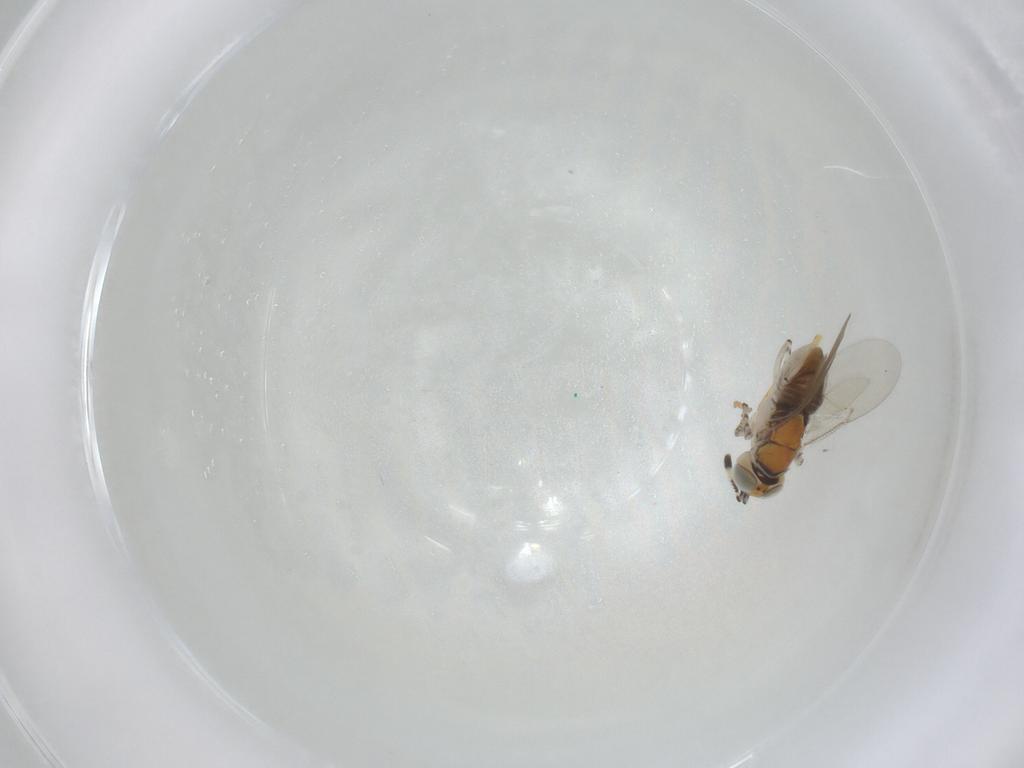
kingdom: Animalia
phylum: Arthropoda
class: Insecta
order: Hymenoptera
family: Encyrtidae
